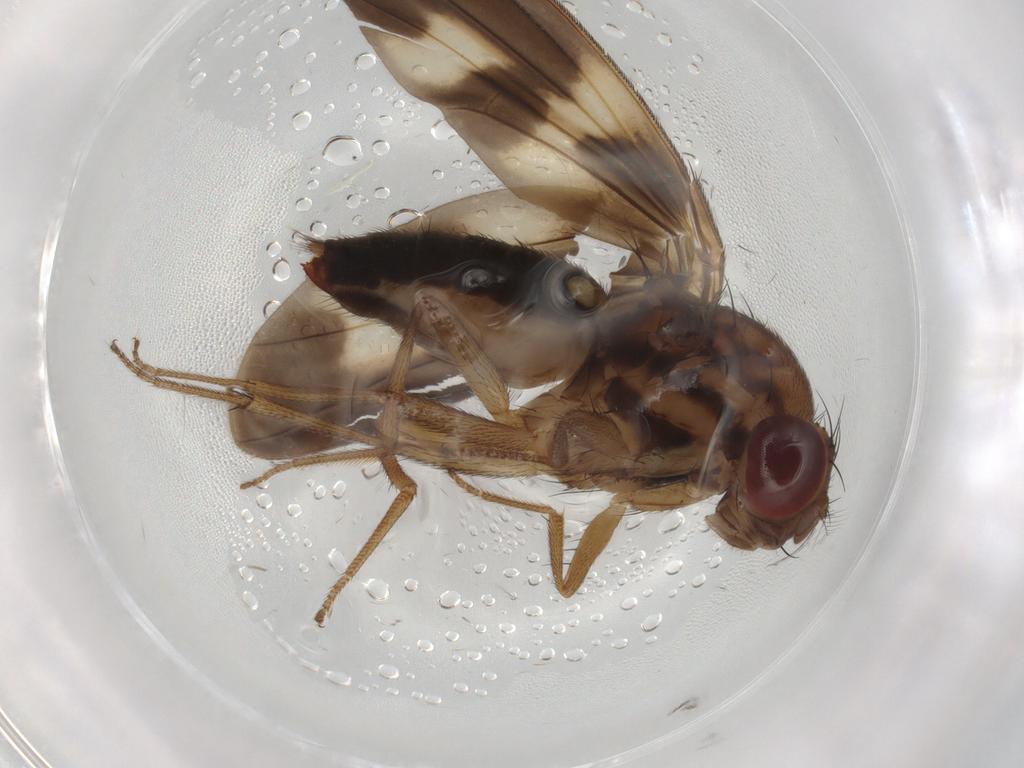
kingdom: Animalia
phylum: Arthropoda
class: Insecta
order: Diptera
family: Drosophilidae
